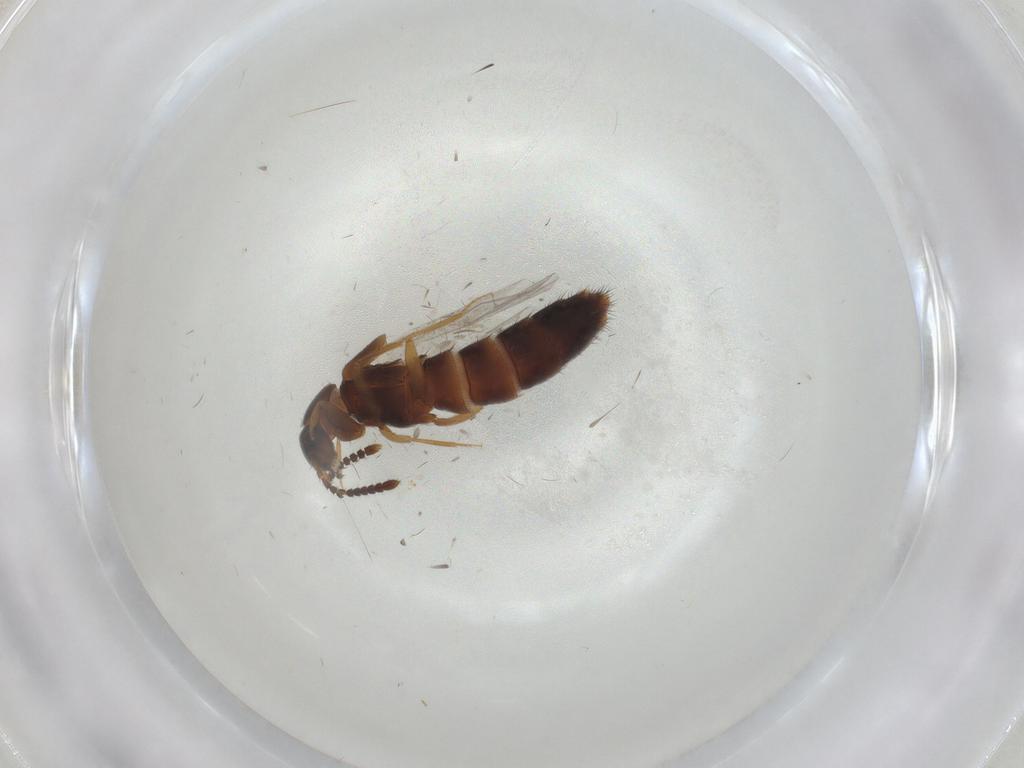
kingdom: Animalia
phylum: Arthropoda
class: Insecta
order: Coleoptera
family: Staphylinidae
